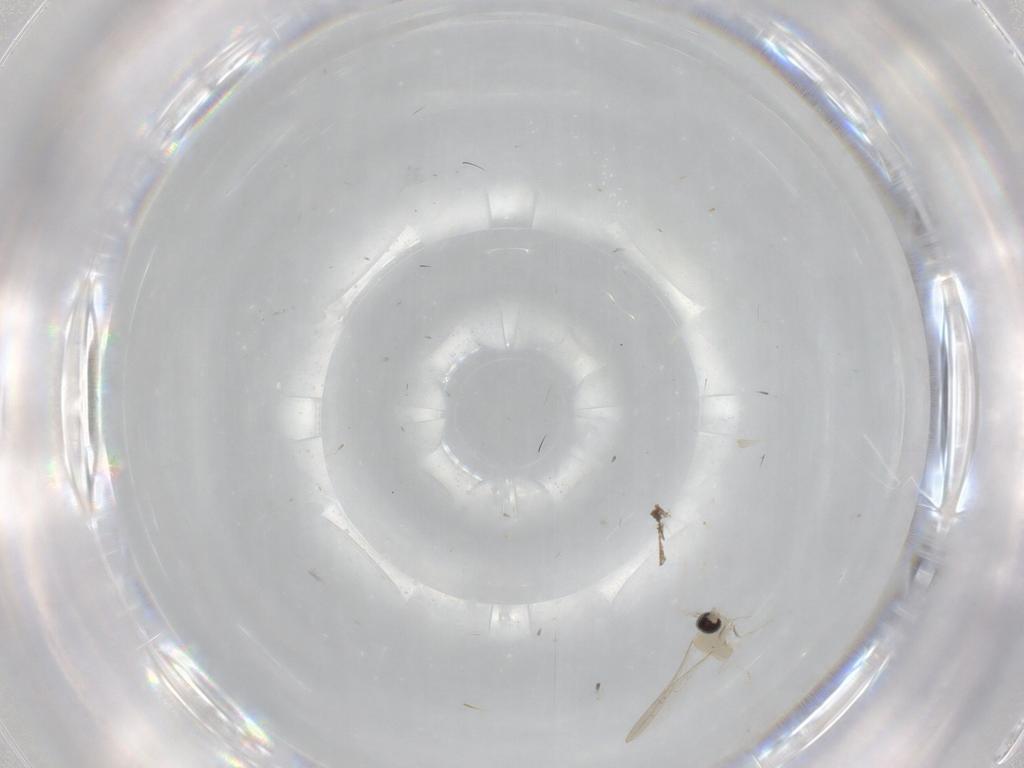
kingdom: Animalia
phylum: Arthropoda
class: Insecta
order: Diptera
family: Cecidomyiidae
